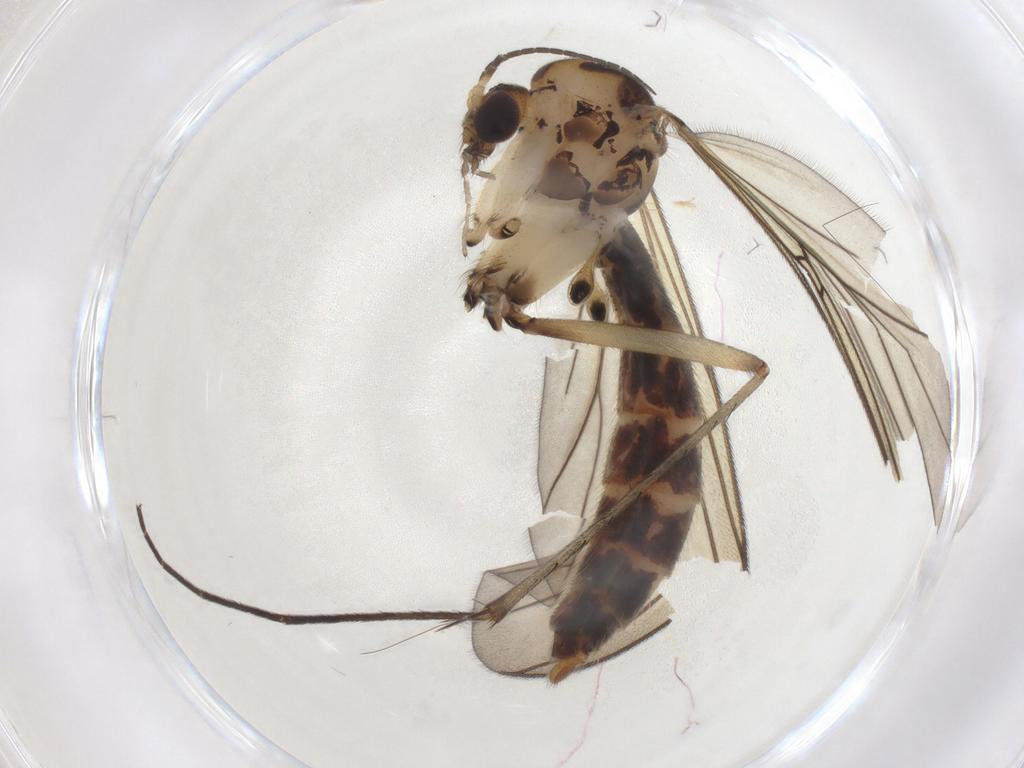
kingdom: Animalia
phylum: Arthropoda
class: Insecta
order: Diptera
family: Mycetophilidae
